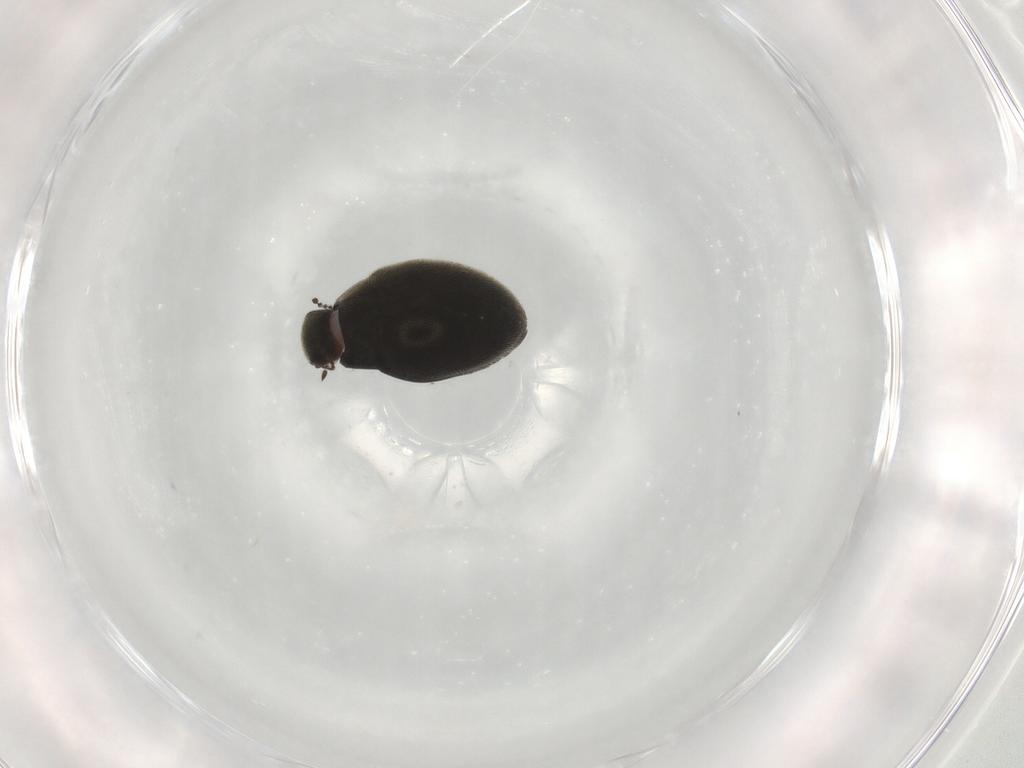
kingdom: Animalia
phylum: Arthropoda
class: Insecta
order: Coleoptera
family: Limnichidae
